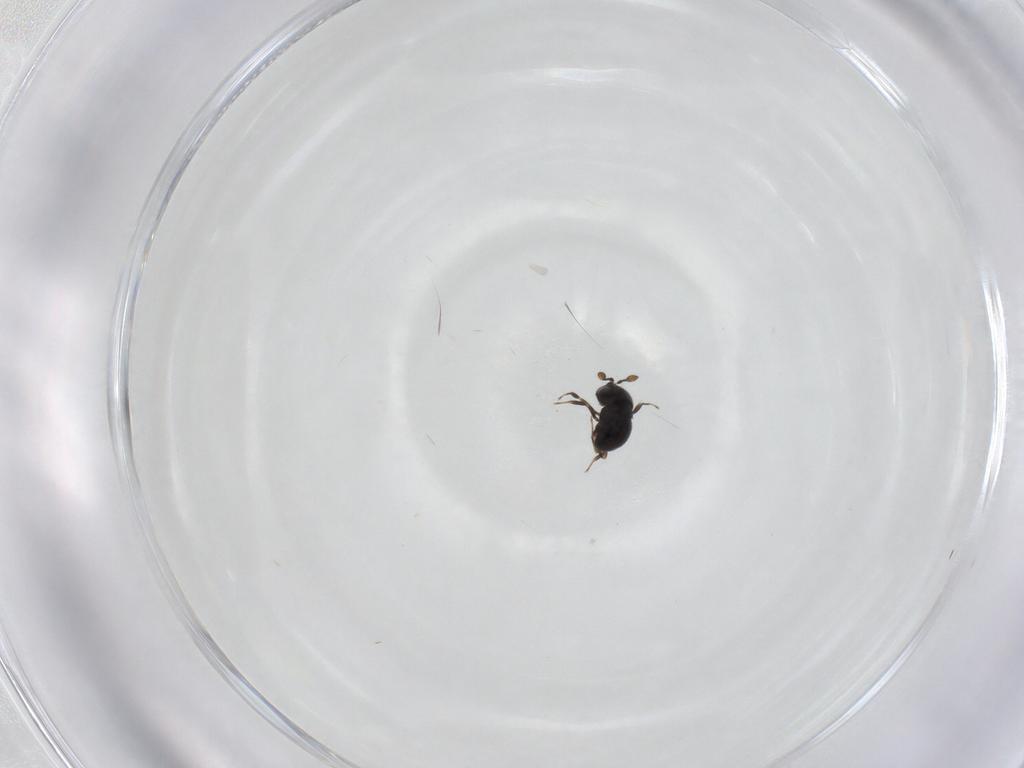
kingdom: Animalia
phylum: Arthropoda
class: Insecta
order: Hymenoptera
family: Scelionidae
